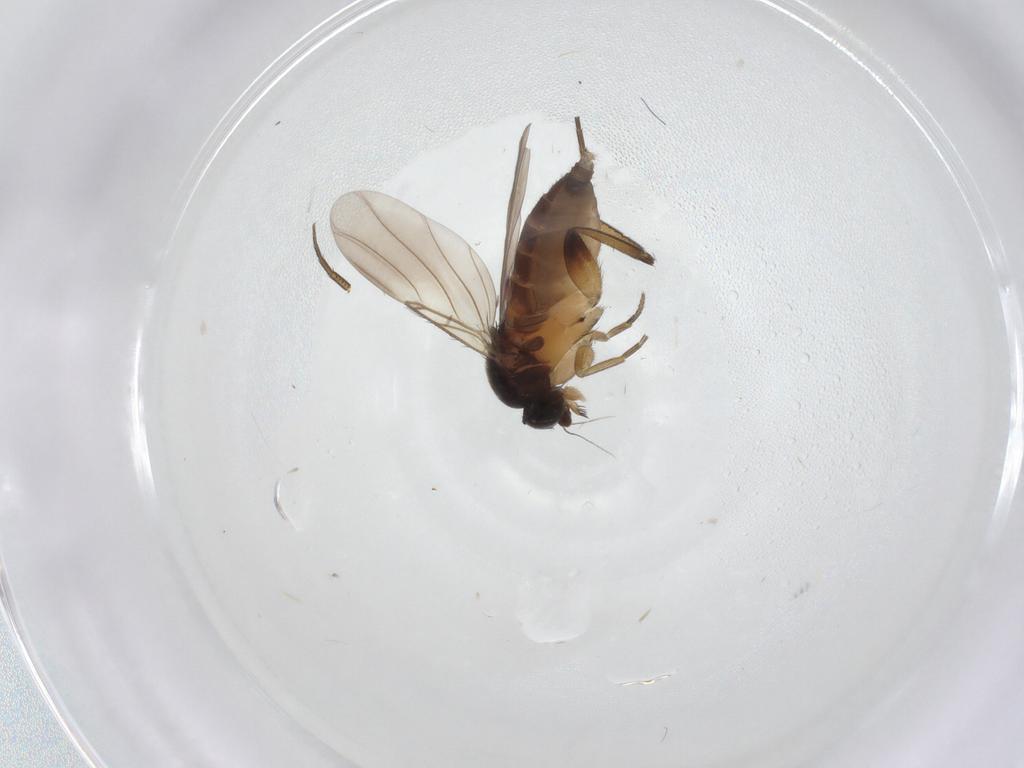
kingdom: Animalia
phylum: Arthropoda
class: Insecta
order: Diptera
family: Phoridae
